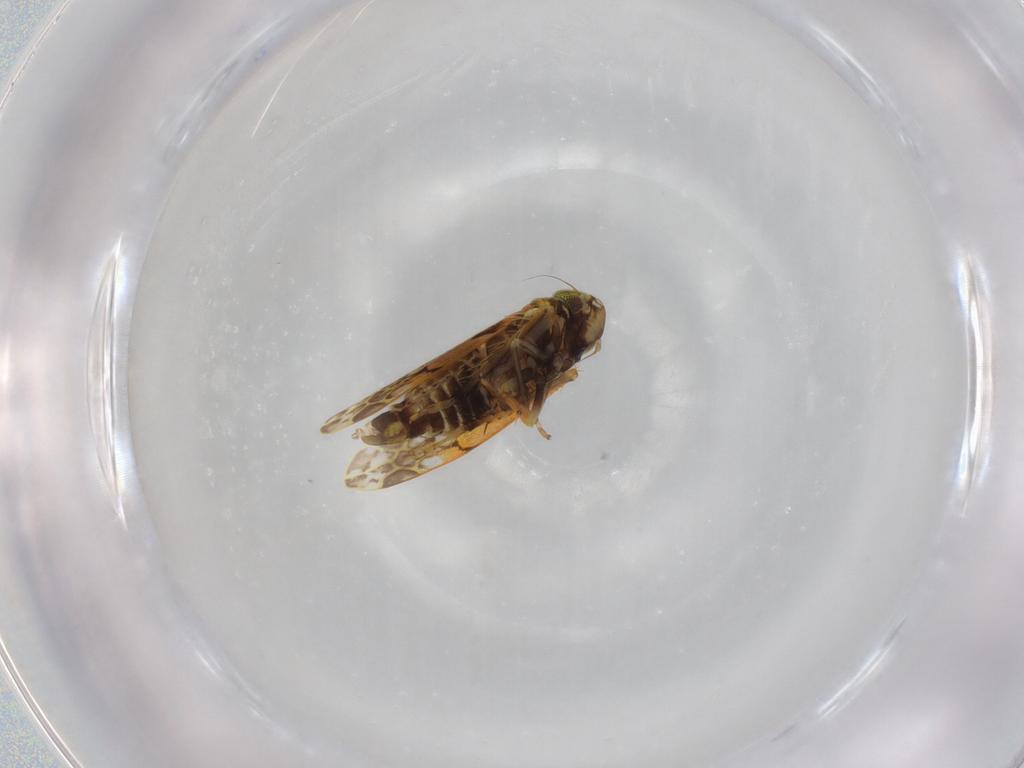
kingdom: Animalia
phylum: Arthropoda
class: Insecta
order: Hemiptera
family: Cicadellidae
